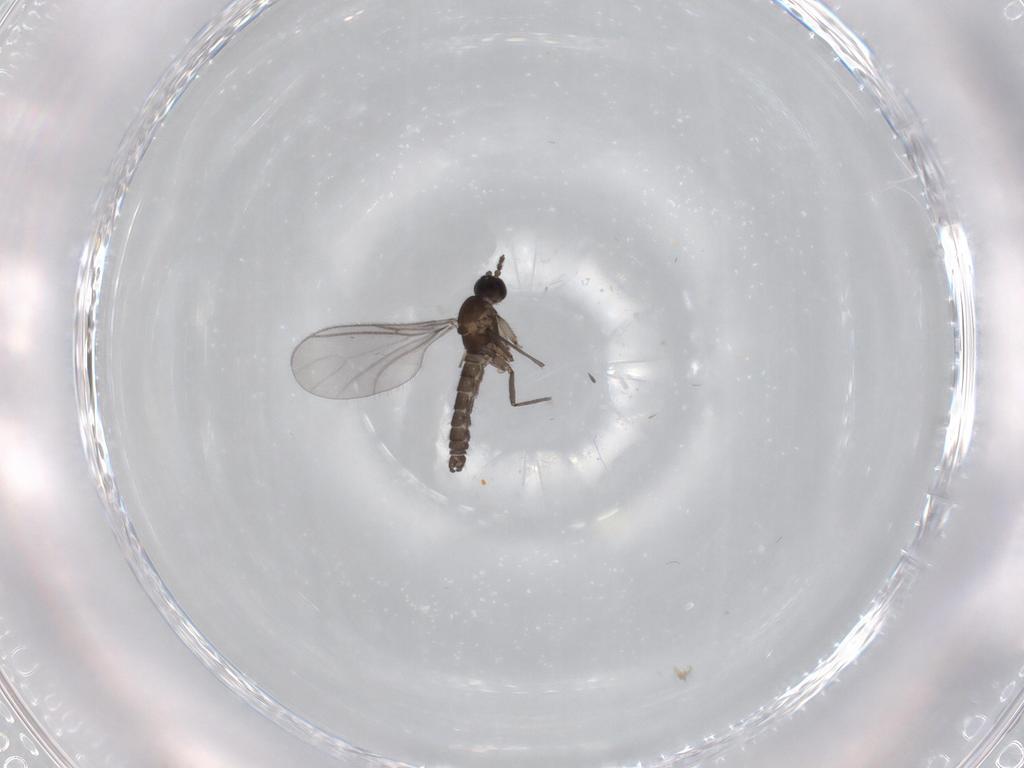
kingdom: Animalia
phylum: Arthropoda
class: Insecta
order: Diptera
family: Sciaridae
